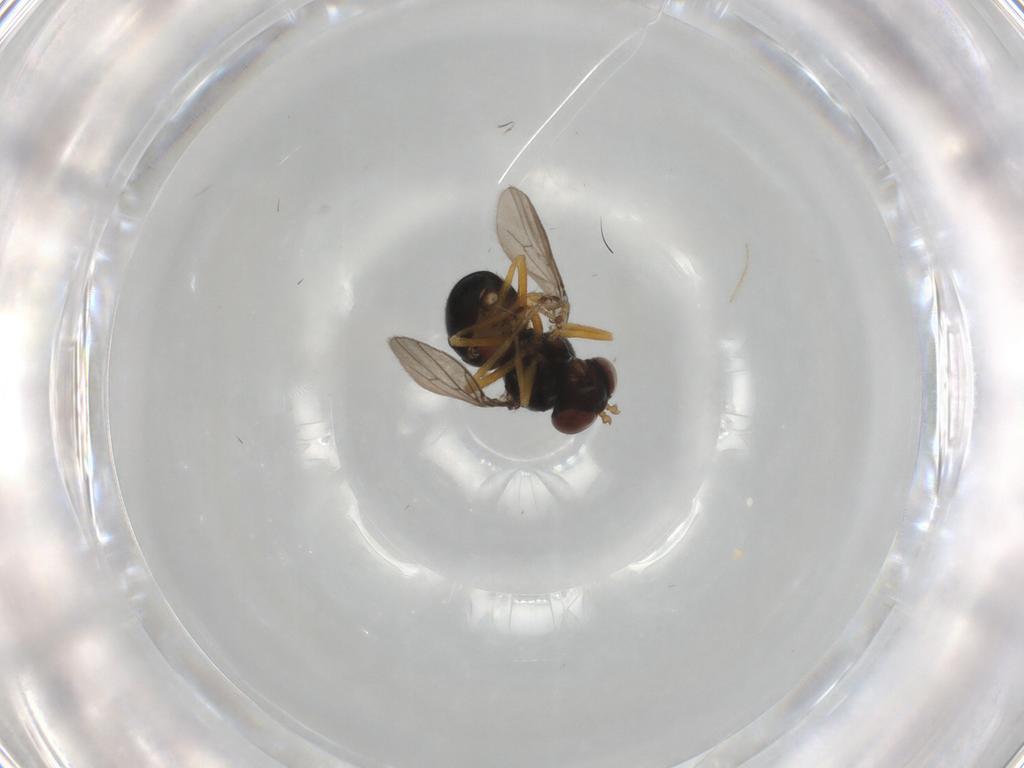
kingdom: Animalia
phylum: Arthropoda
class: Insecta
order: Diptera
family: Ephydridae
